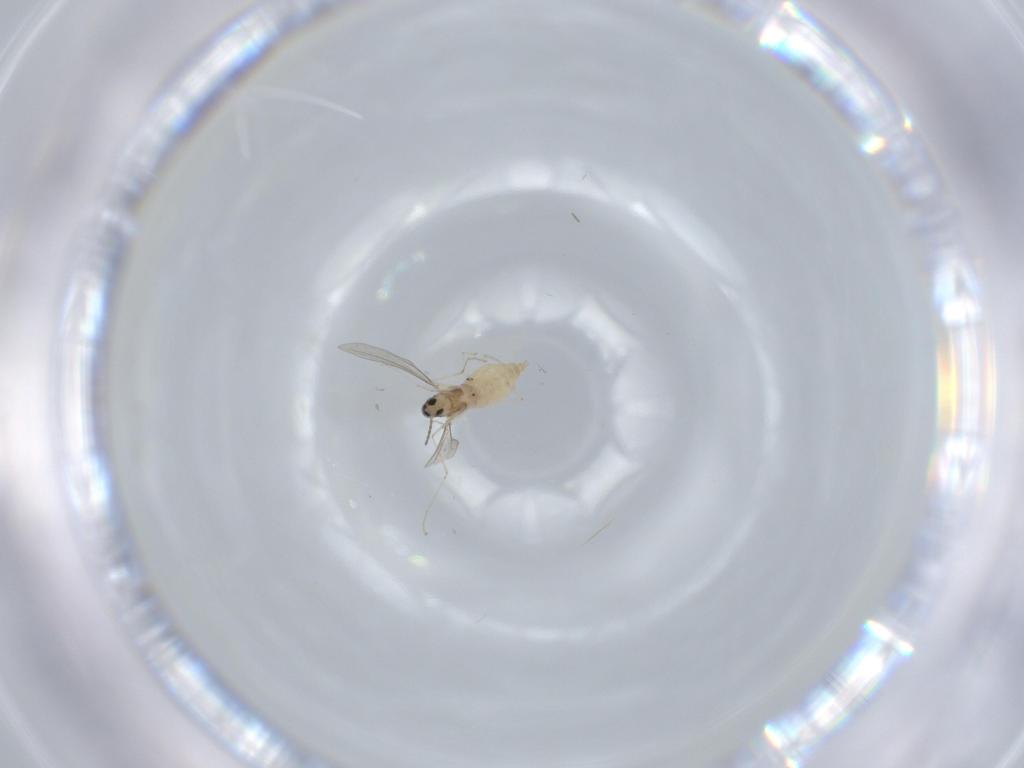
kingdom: Animalia
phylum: Arthropoda
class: Insecta
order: Diptera
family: Cecidomyiidae
